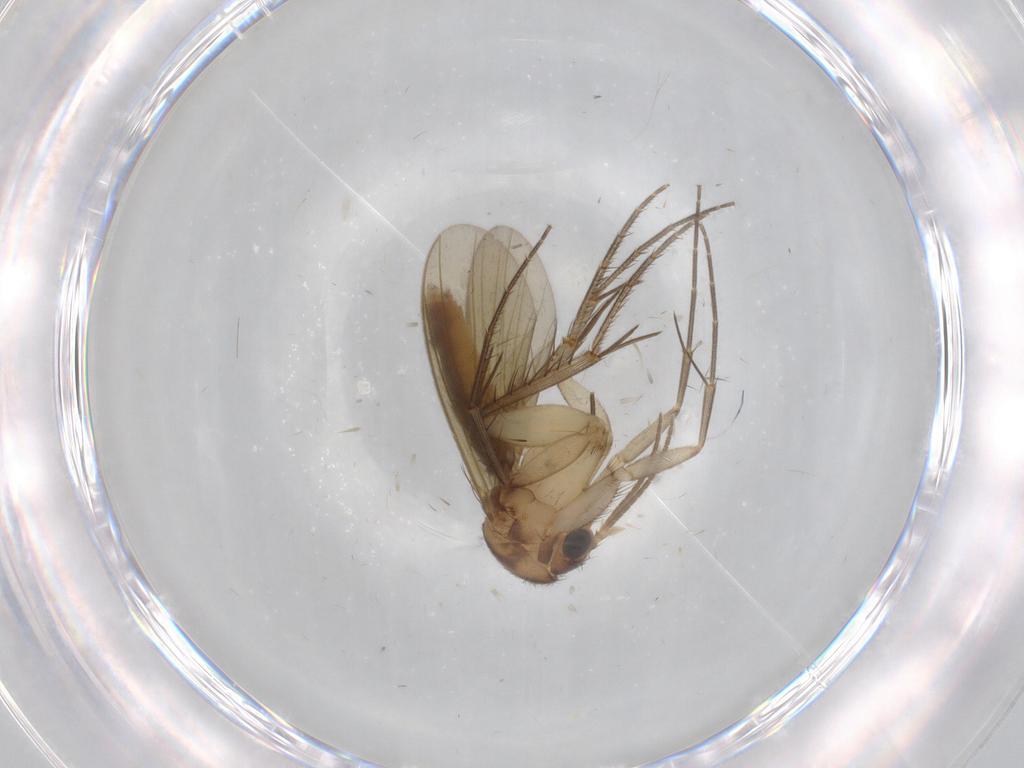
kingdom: Animalia
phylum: Arthropoda
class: Insecta
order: Diptera
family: Mycetophilidae
